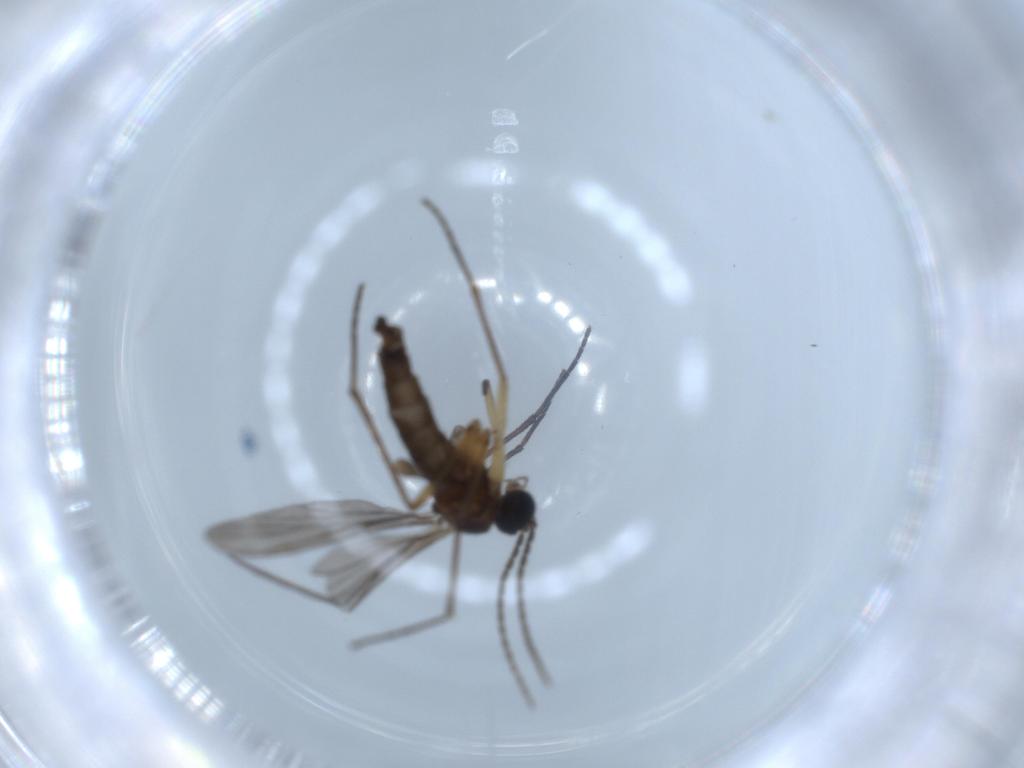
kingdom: Animalia
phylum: Arthropoda
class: Insecta
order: Diptera
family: Sciaridae
